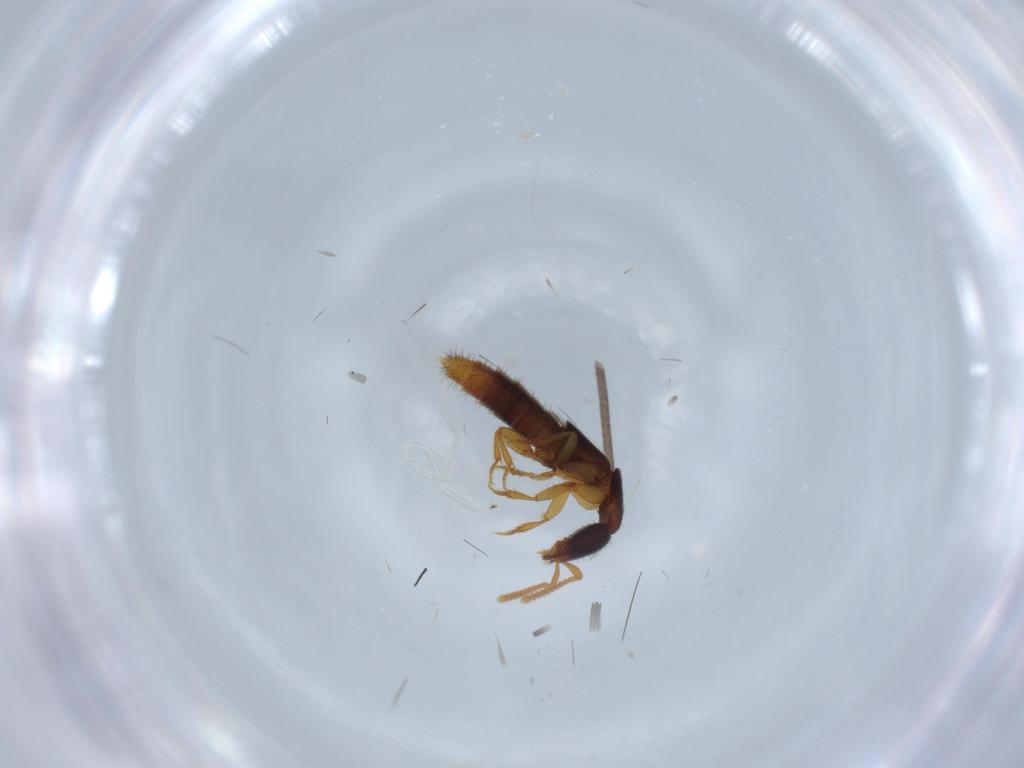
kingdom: Animalia
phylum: Arthropoda
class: Insecta
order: Coleoptera
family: Staphylinidae
